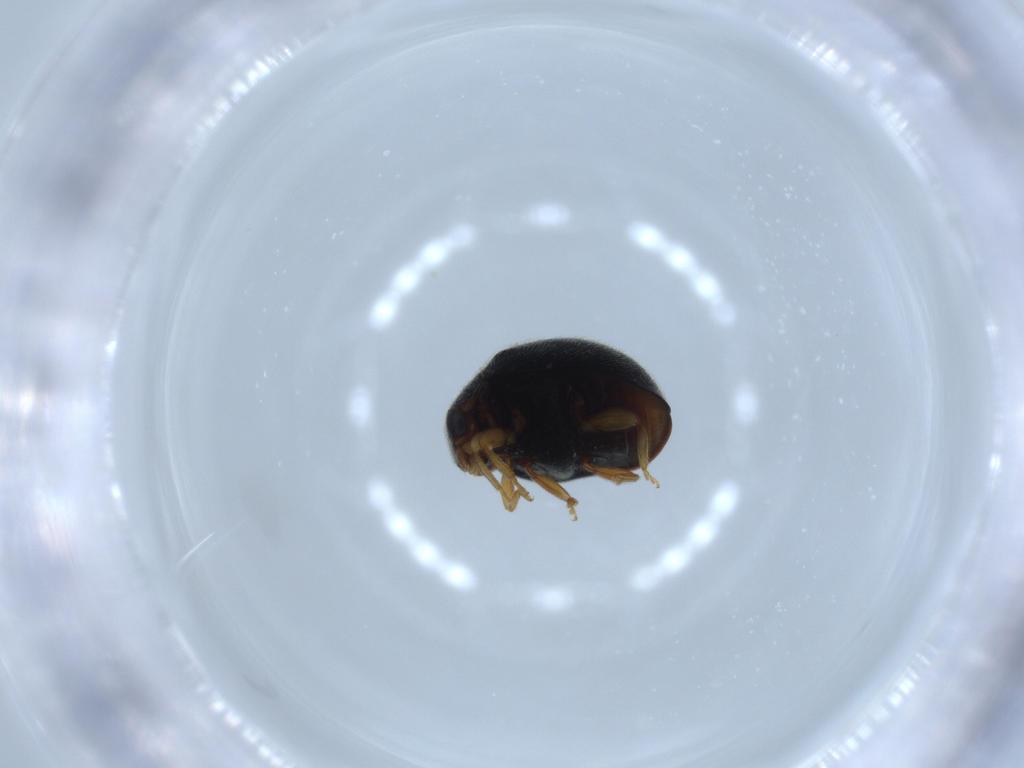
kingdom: Animalia
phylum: Arthropoda
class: Insecta
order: Coleoptera
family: Coccinellidae
